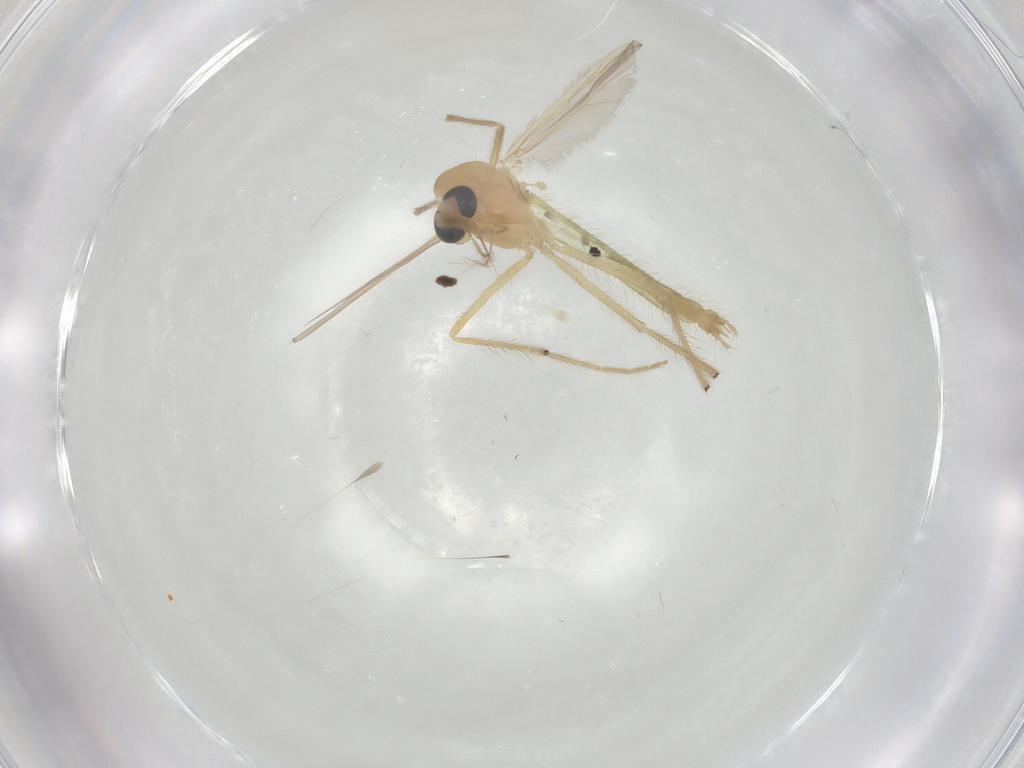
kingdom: Animalia
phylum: Arthropoda
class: Insecta
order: Diptera
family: Chironomidae
